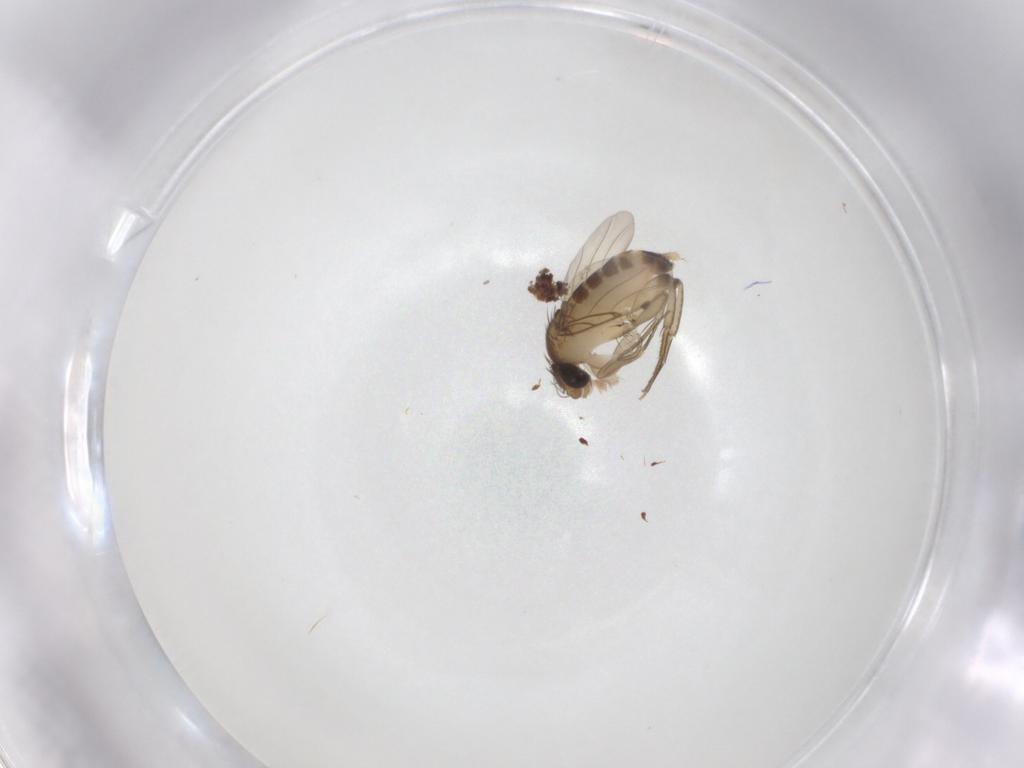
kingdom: Animalia
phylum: Arthropoda
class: Insecta
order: Diptera
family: Phoridae
